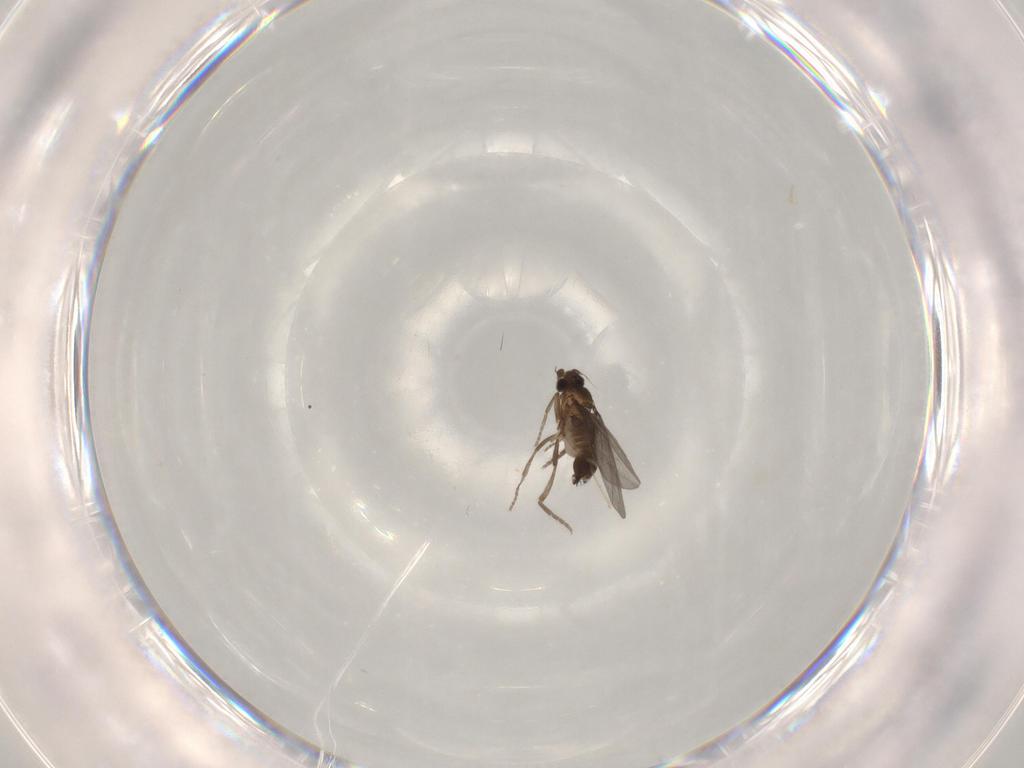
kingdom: Animalia
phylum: Arthropoda
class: Insecta
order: Diptera
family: Phoridae
